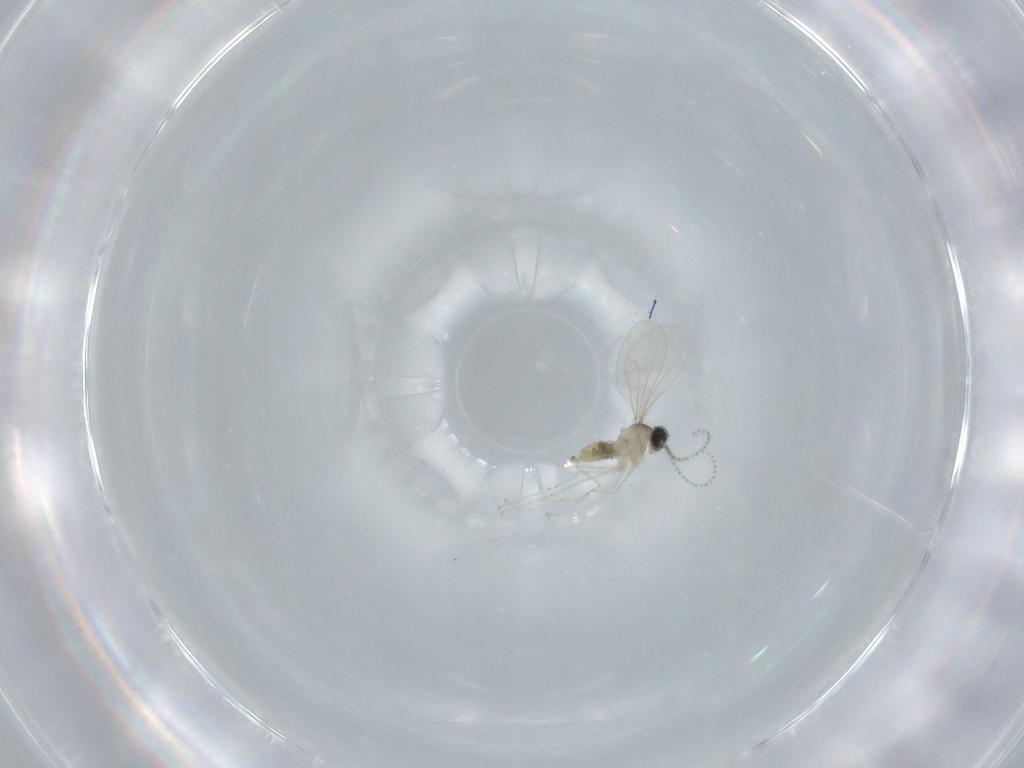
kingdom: Animalia
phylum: Arthropoda
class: Insecta
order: Diptera
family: Cecidomyiidae
